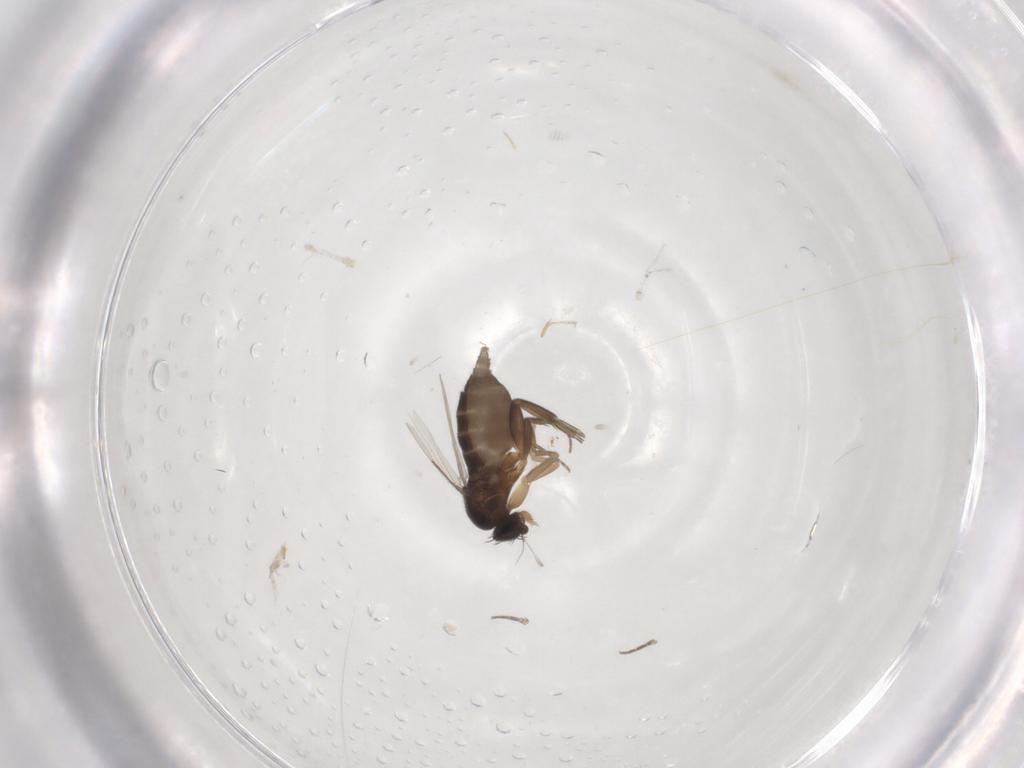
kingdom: Animalia
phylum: Arthropoda
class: Insecta
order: Diptera
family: Phoridae
